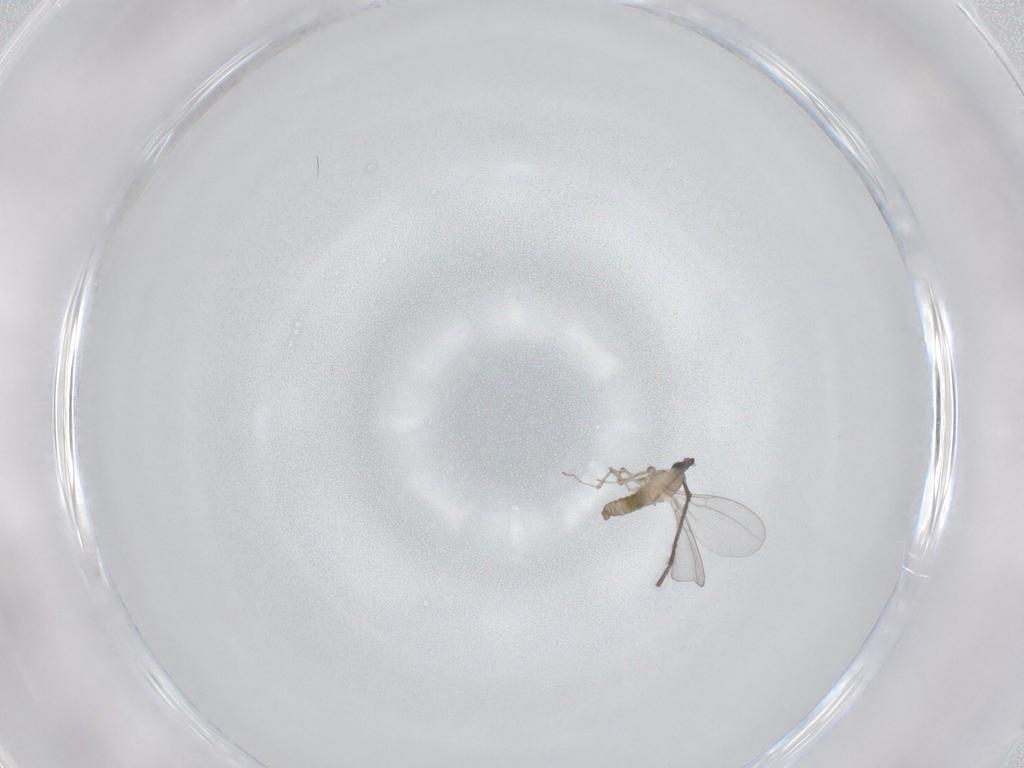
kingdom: Animalia
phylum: Arthropoda
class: Insecta
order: Diptera
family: Cecidomyiidae
